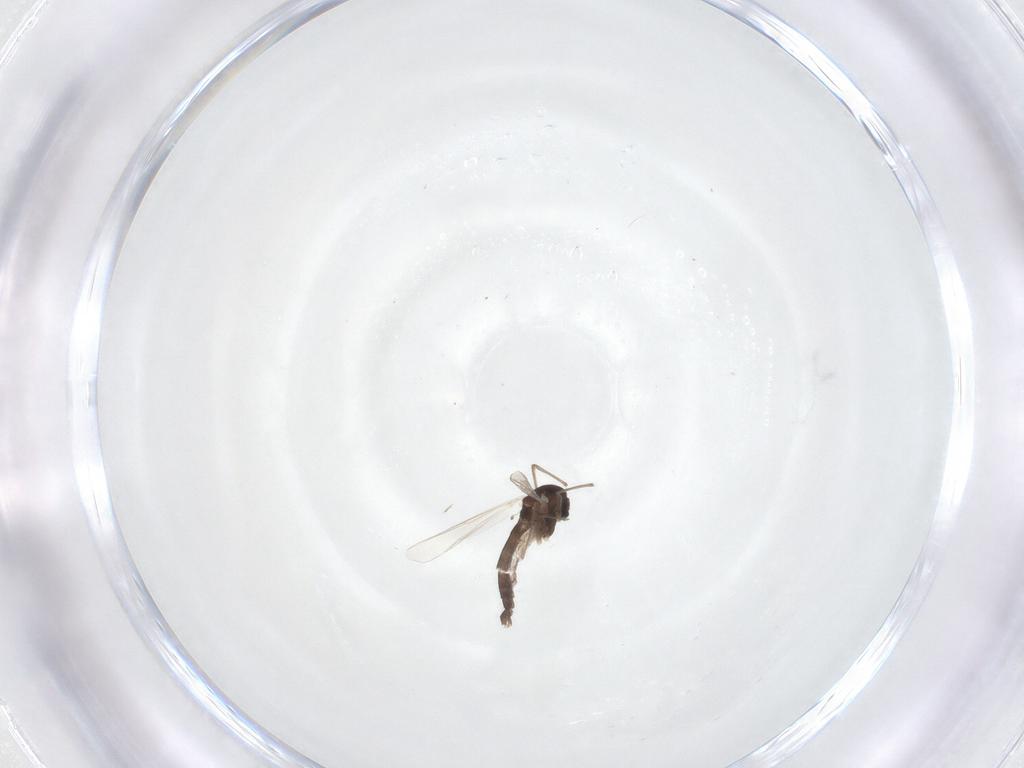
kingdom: Animalia
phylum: Arthropoda
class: Insecta
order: Diptera
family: Chironomidae
